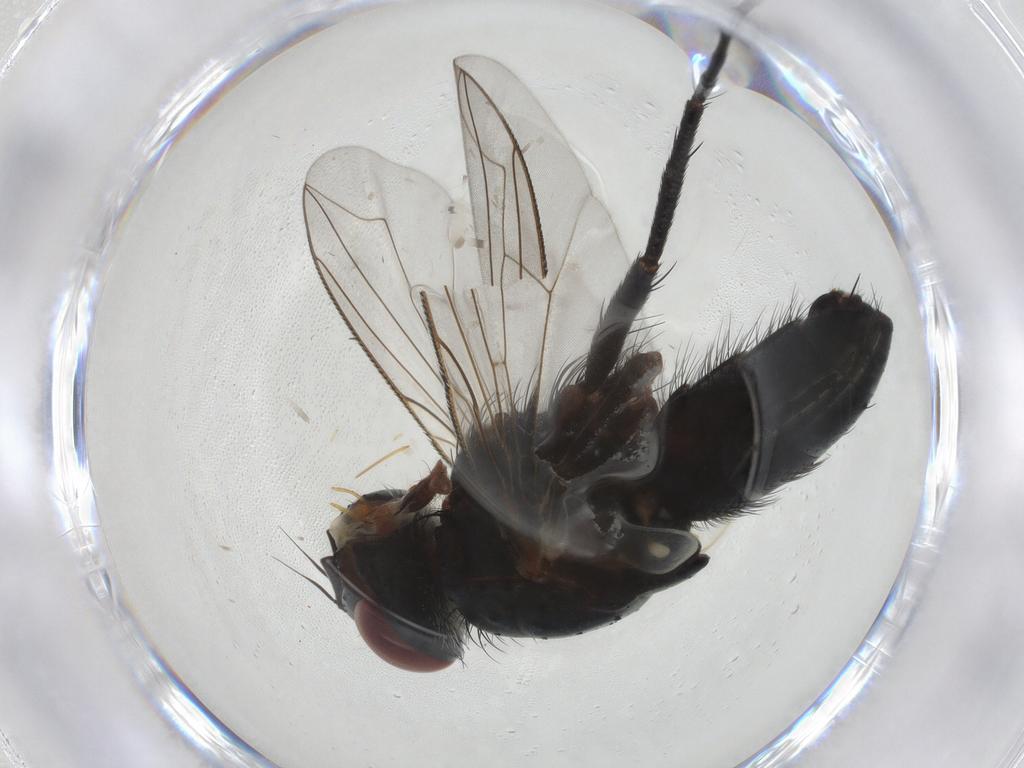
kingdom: Animalia
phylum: Arthropoda
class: Insecta
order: Diptera
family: Tachinidae
